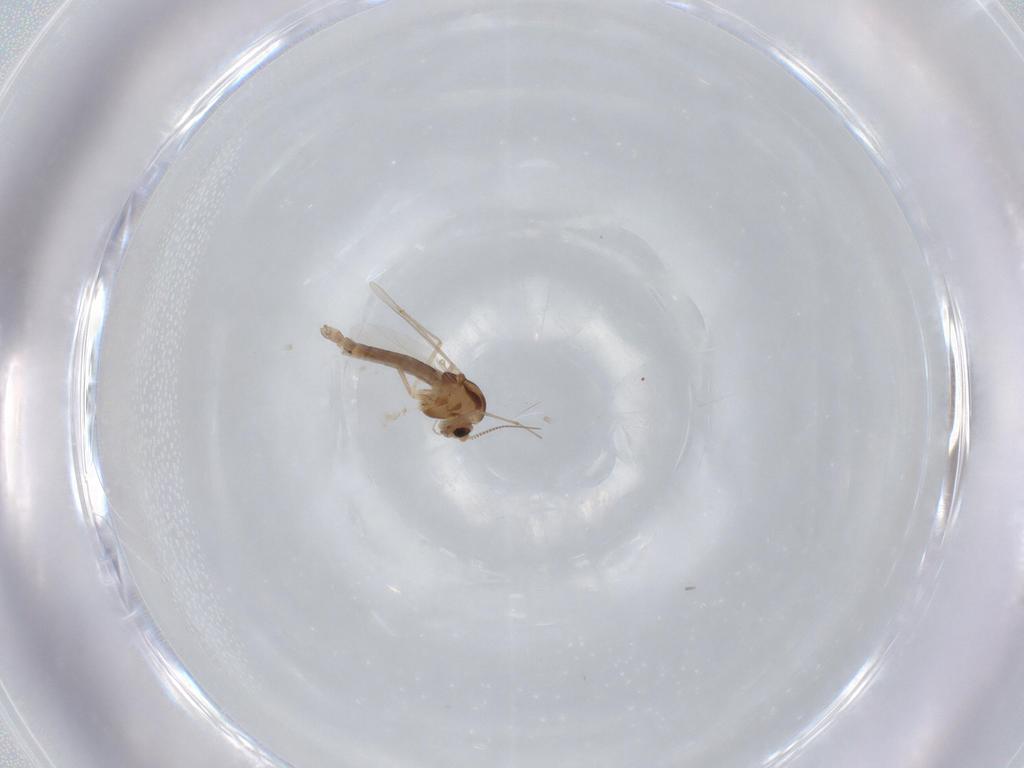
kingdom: Animalia
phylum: Arthropoda
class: Insecta
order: Diptera
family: Chironomidae
